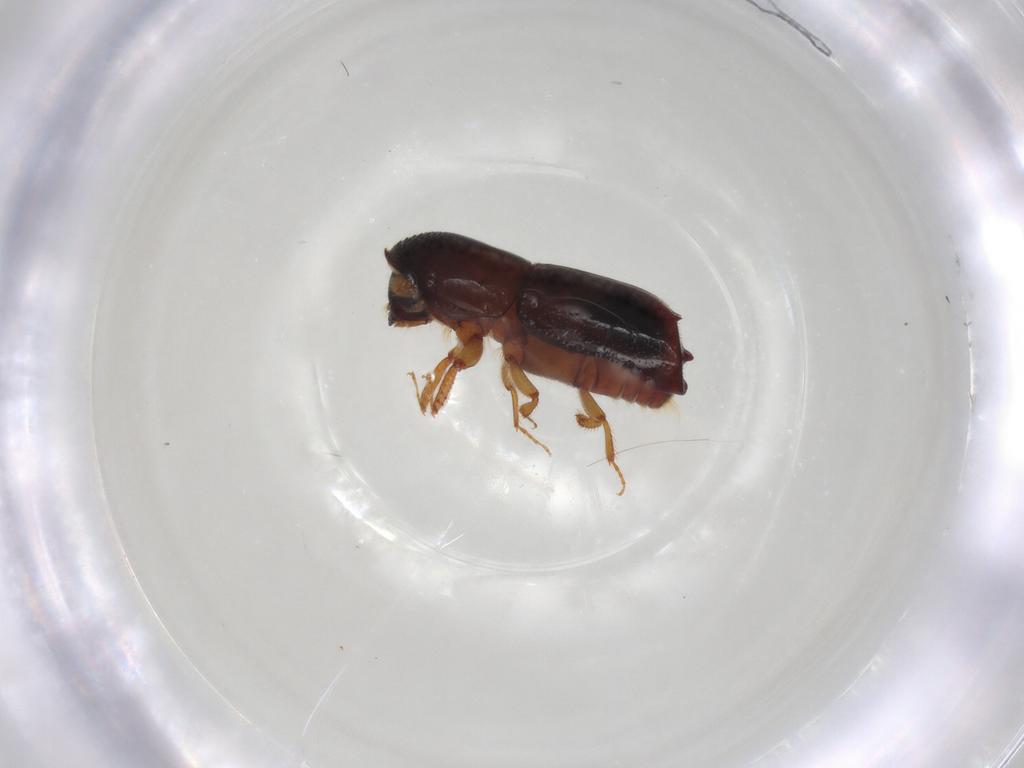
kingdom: Animalia
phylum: Arthropoda
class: Insecta
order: Coleoptera
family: Curculionidae
